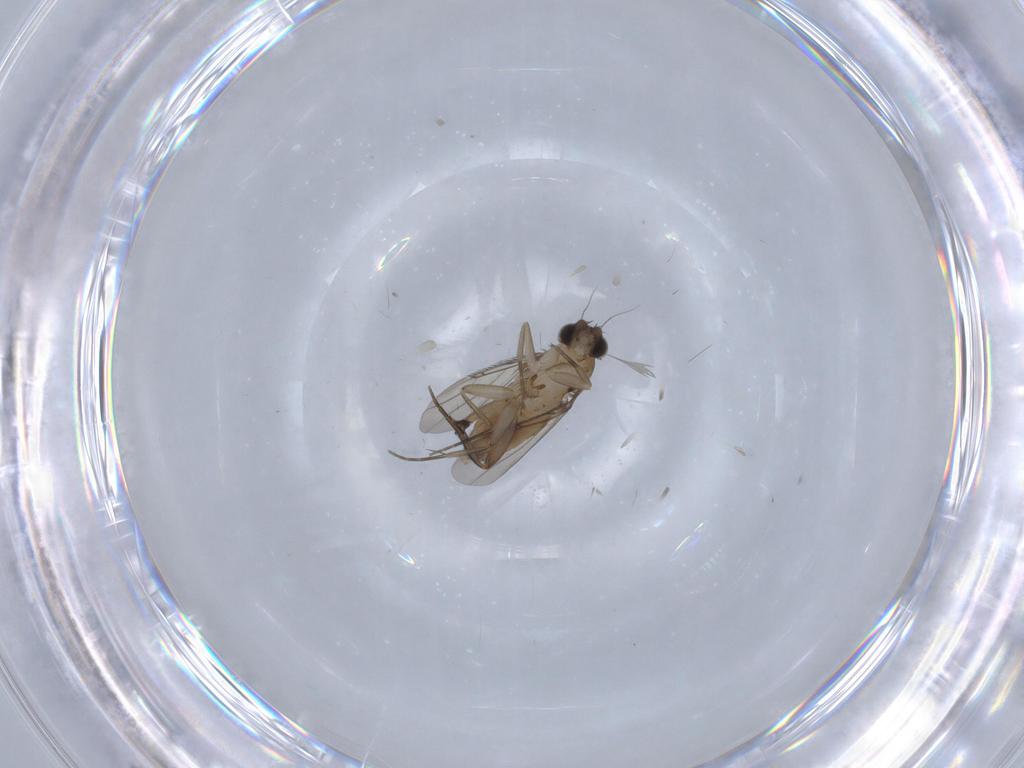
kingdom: Animalia
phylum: Arthropoda
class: Insecta
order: Diptera
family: Phoridae
